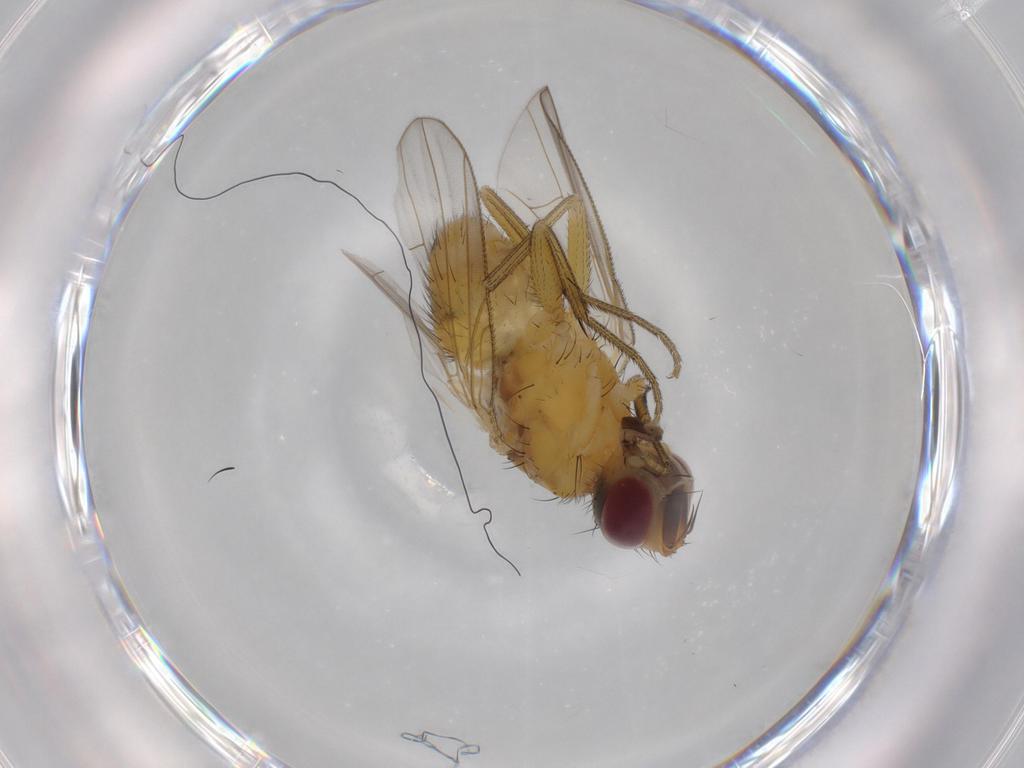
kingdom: Animalia
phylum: Arthropoda
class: Insecta
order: Diptera
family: Muscidae
